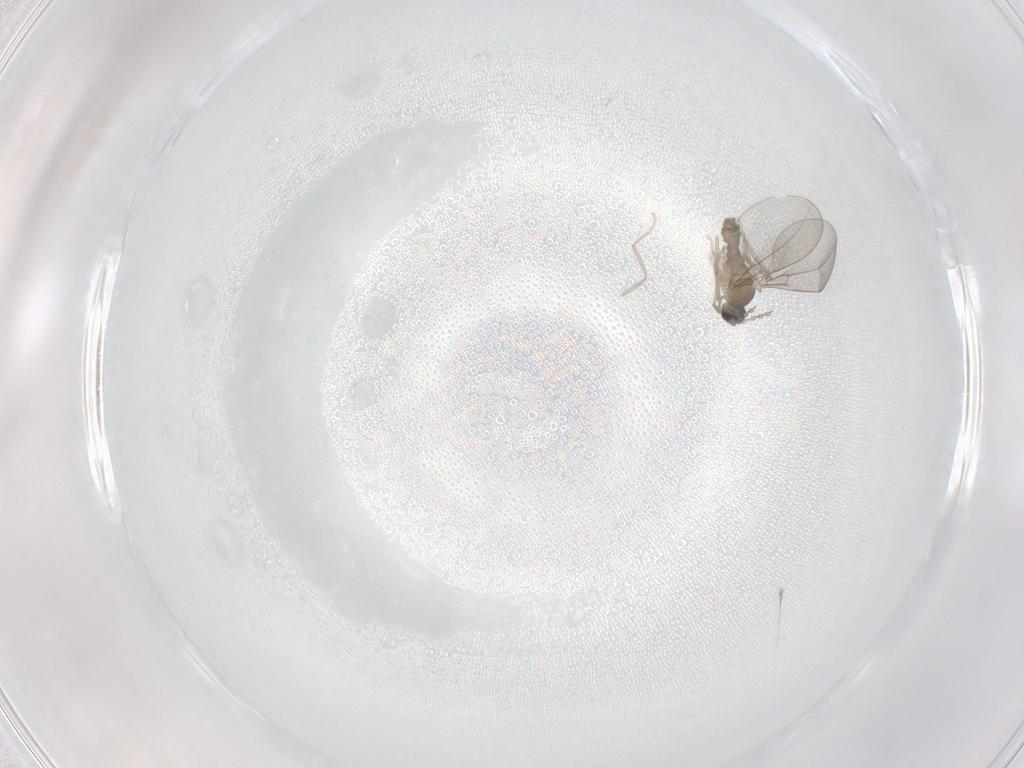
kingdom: Animalia
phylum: Arthropoda
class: Insecta
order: Diptera
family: Cecidomyiidae
